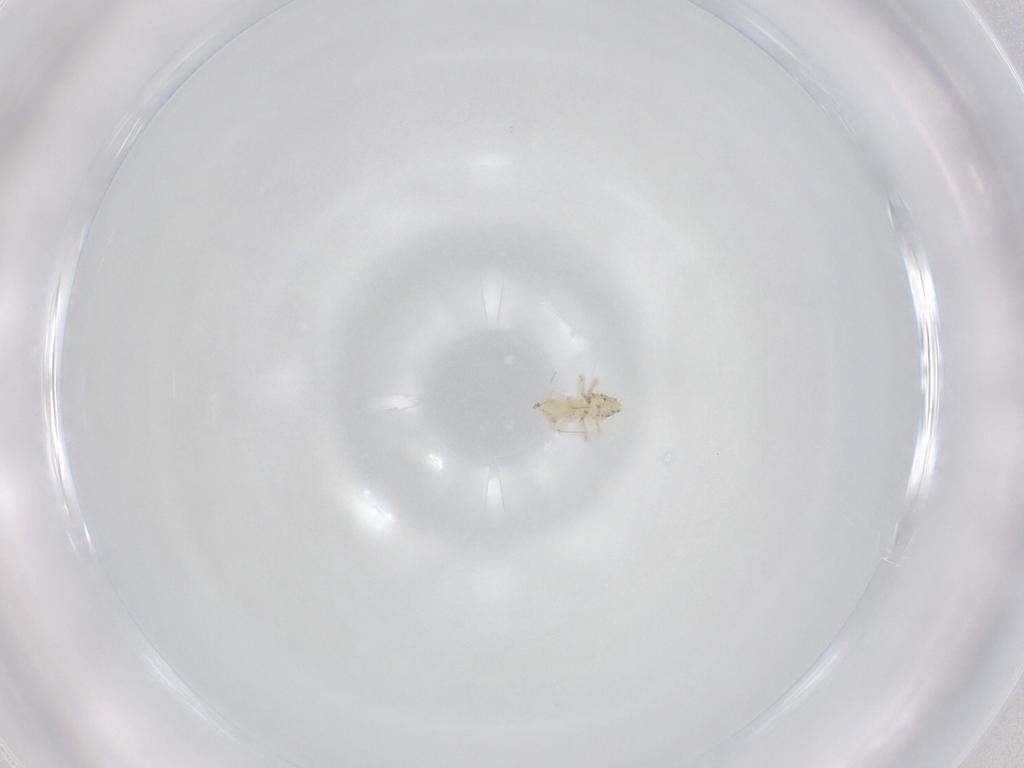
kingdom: Animalia
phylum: Arthropoda
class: Insecta
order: Hemiptera
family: Cicadellidae
